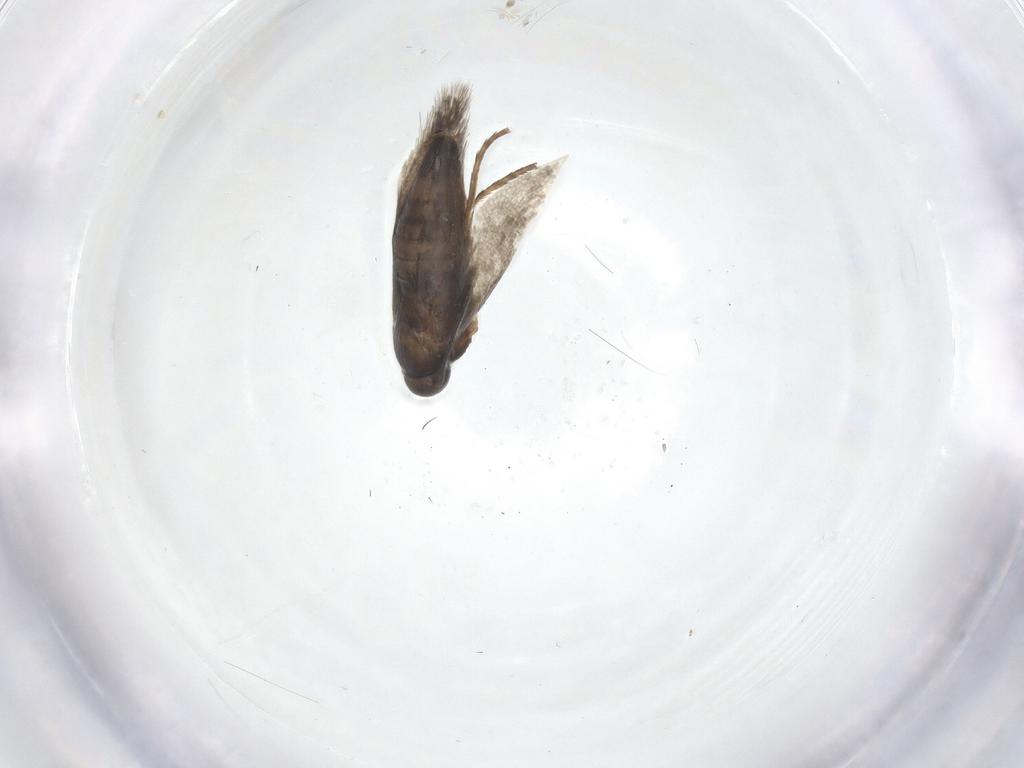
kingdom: Animalia
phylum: Arthropoda
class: Insecta
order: Lepidoptera
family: Heliozelidae
